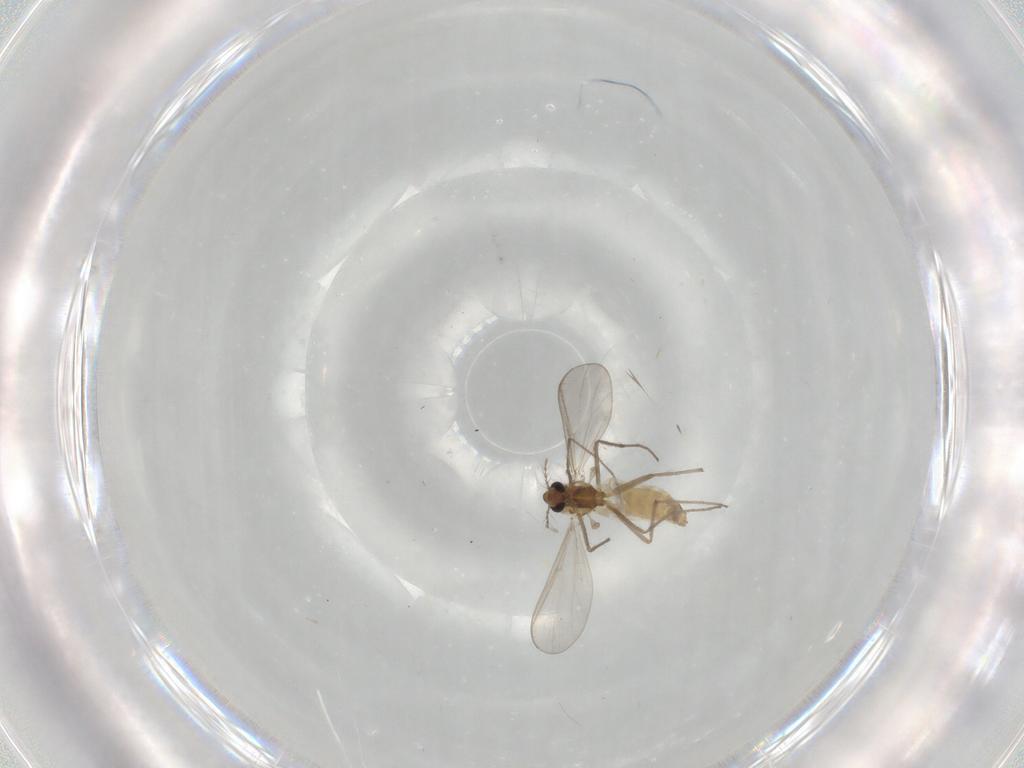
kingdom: Animalia
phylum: Arthropoda
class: Insecta
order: Diptera
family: Chironomidae
